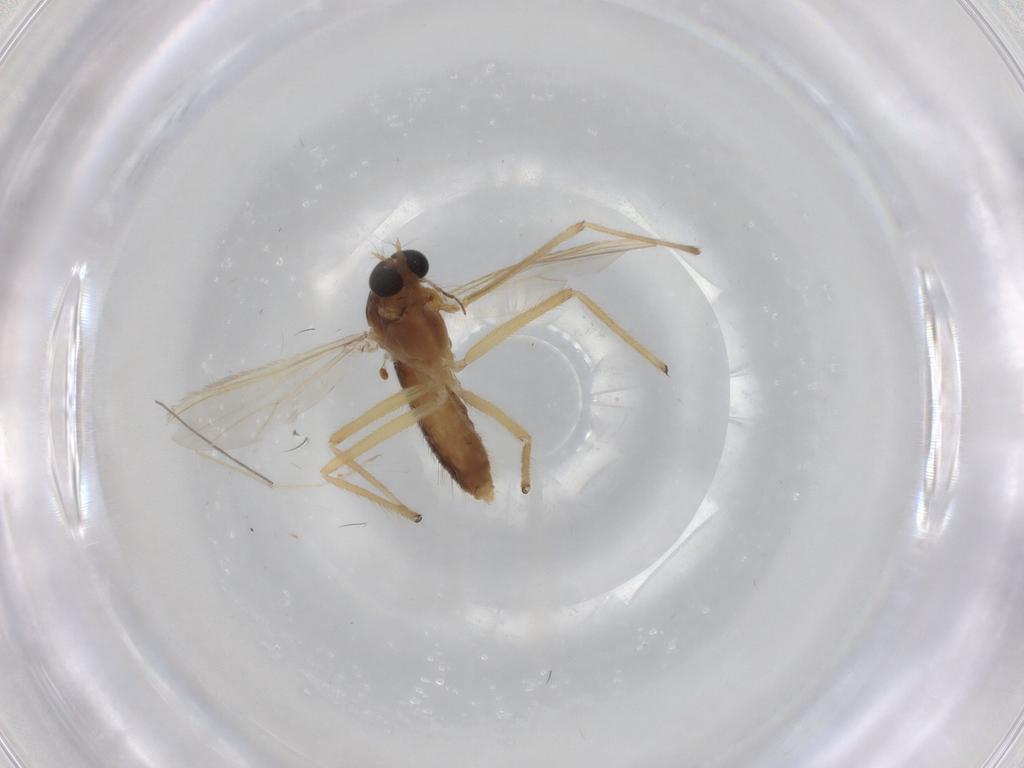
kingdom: Animalia
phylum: Arthropoda
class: Insecta
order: Diptera
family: Chironomidae
